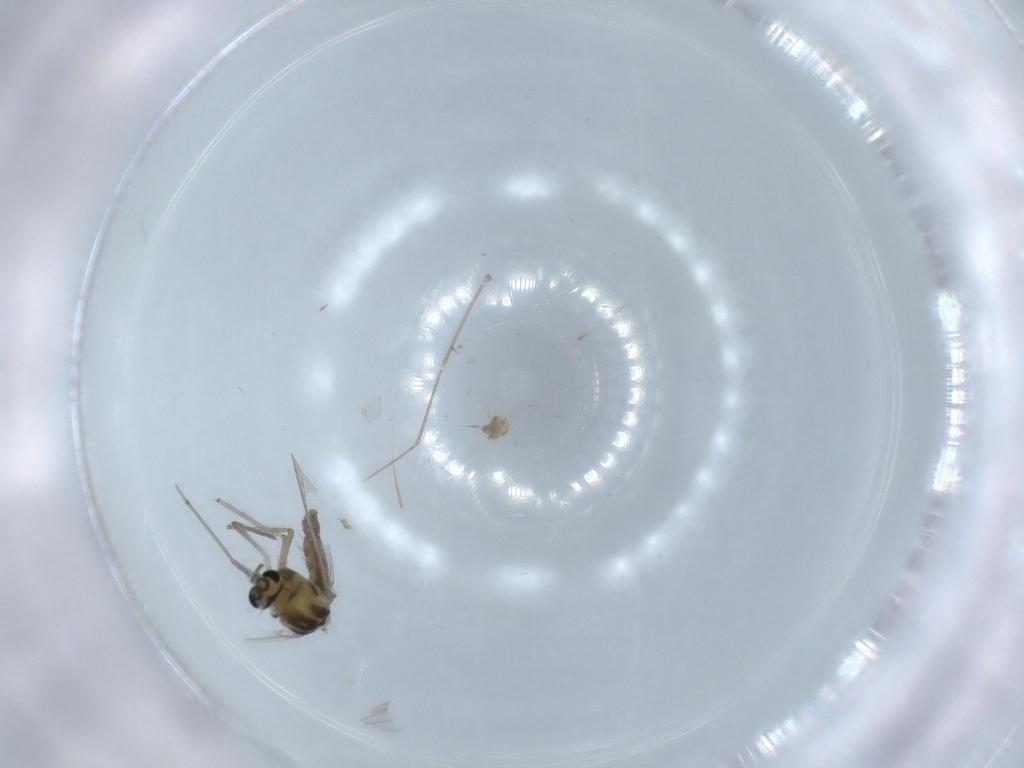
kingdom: Animalia
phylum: Arthropoda
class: Insecta
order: Diptera
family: Chironomidae
